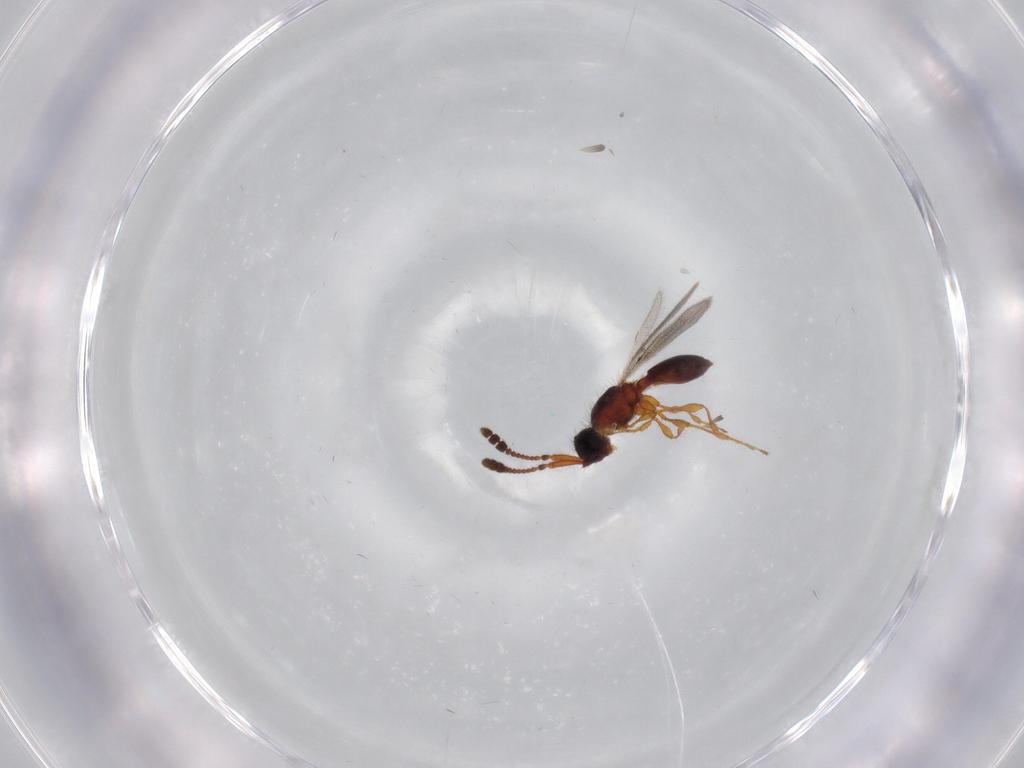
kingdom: Animalia
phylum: Arthropoda
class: Insecta
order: Hymenoptera
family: Diapriidae
